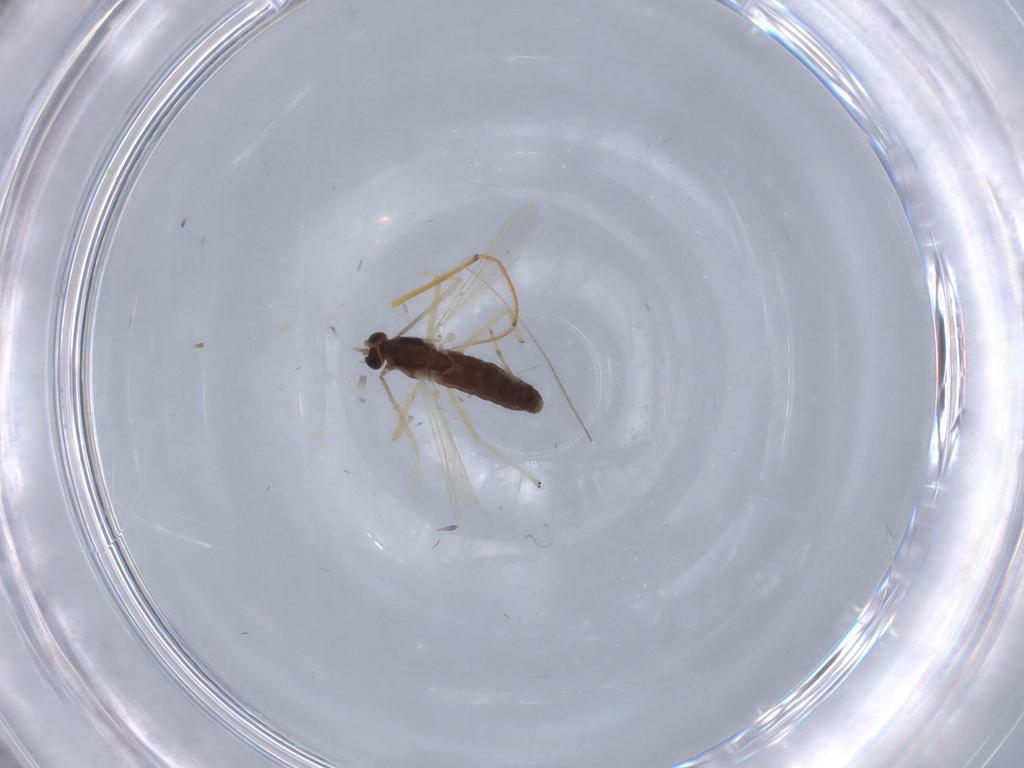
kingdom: Animalia
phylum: Arthropoda
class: Insecta
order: Diptera
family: Chironomidae
